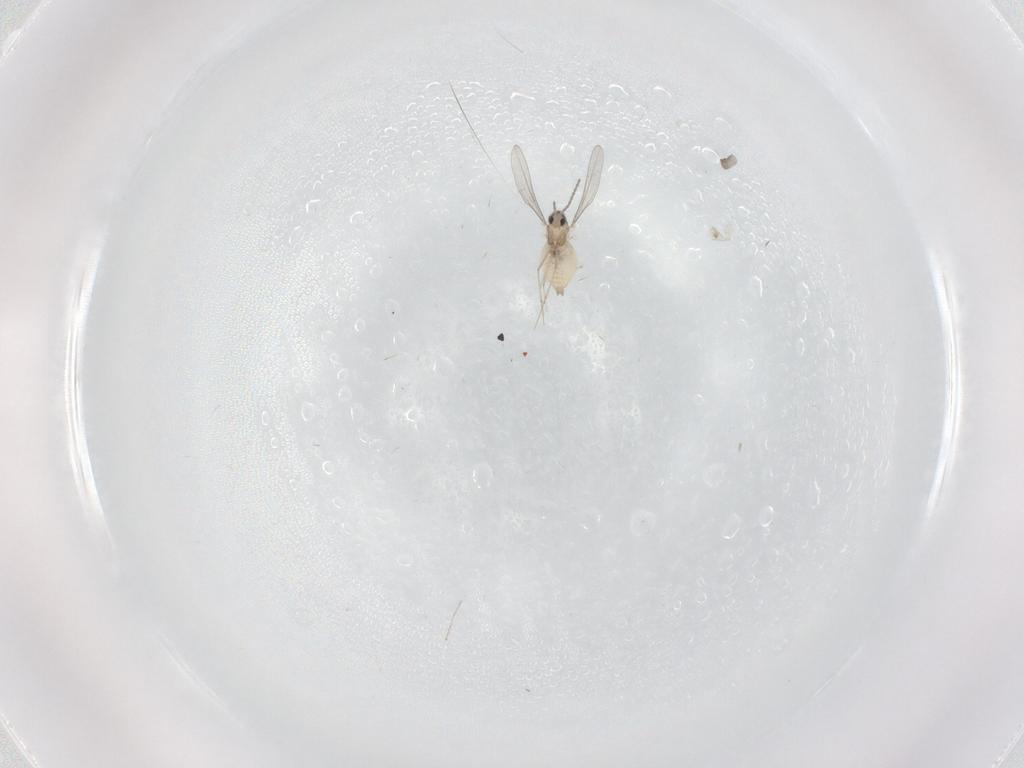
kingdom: Animalia
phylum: Arthropoda
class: Insecta
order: Diptera
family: Cecidomyiidae
